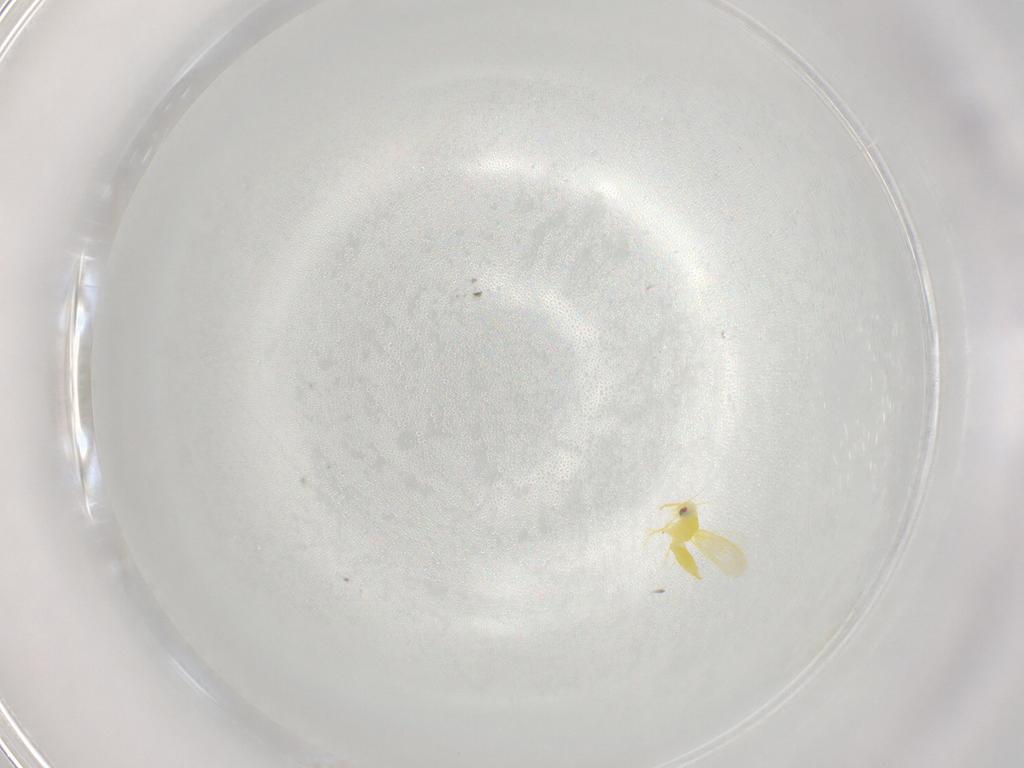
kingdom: Animalia
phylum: Arthropoda
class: Insecta
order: Hemiptera
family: Aleyrodidae
